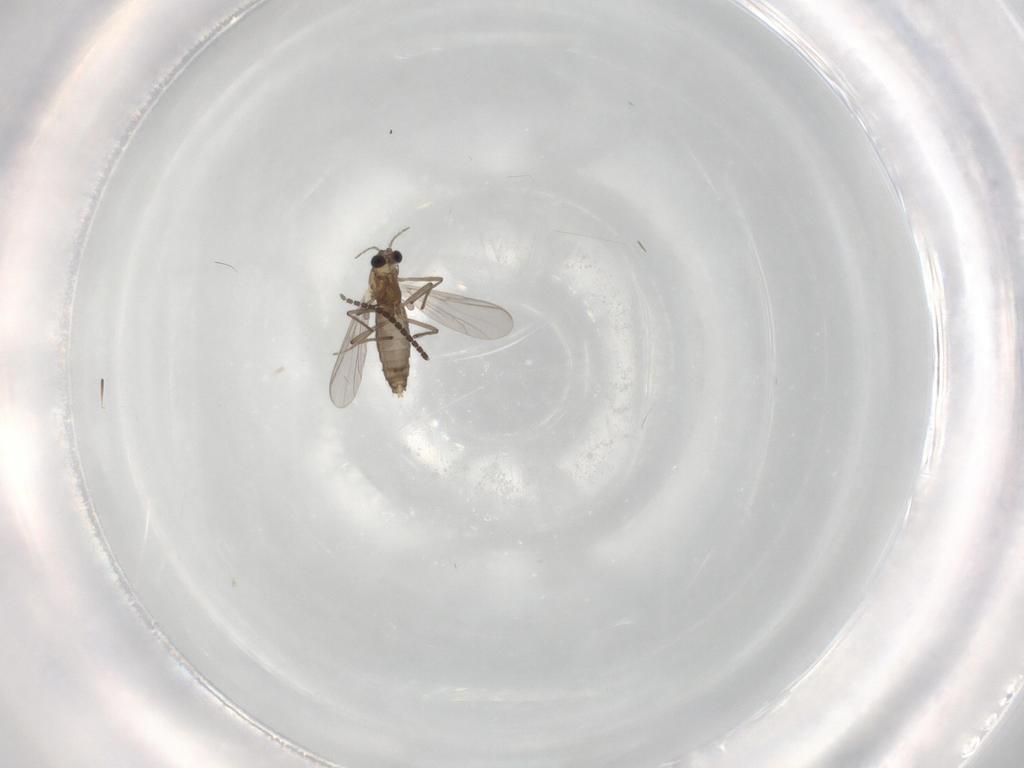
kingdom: Animalia
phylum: Arthropoda
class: Insecta
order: Diptera
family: Chironomidae
